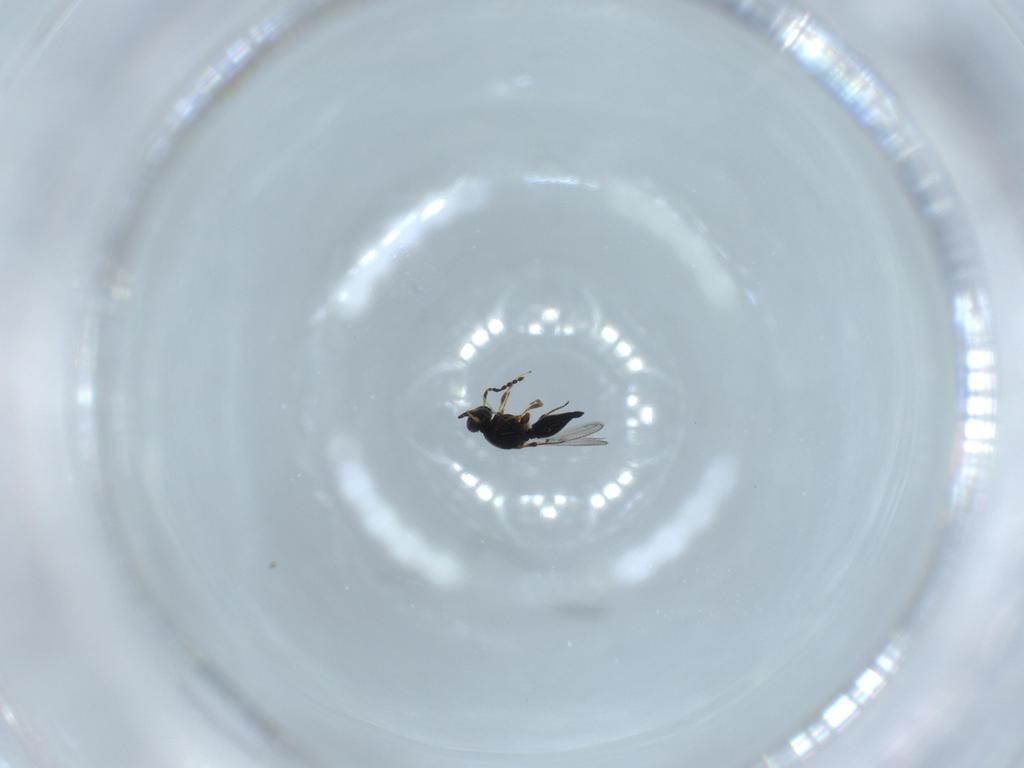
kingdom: Animalia
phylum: Arthropoda
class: Insecta
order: Hymenoptera
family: Platygastridae
